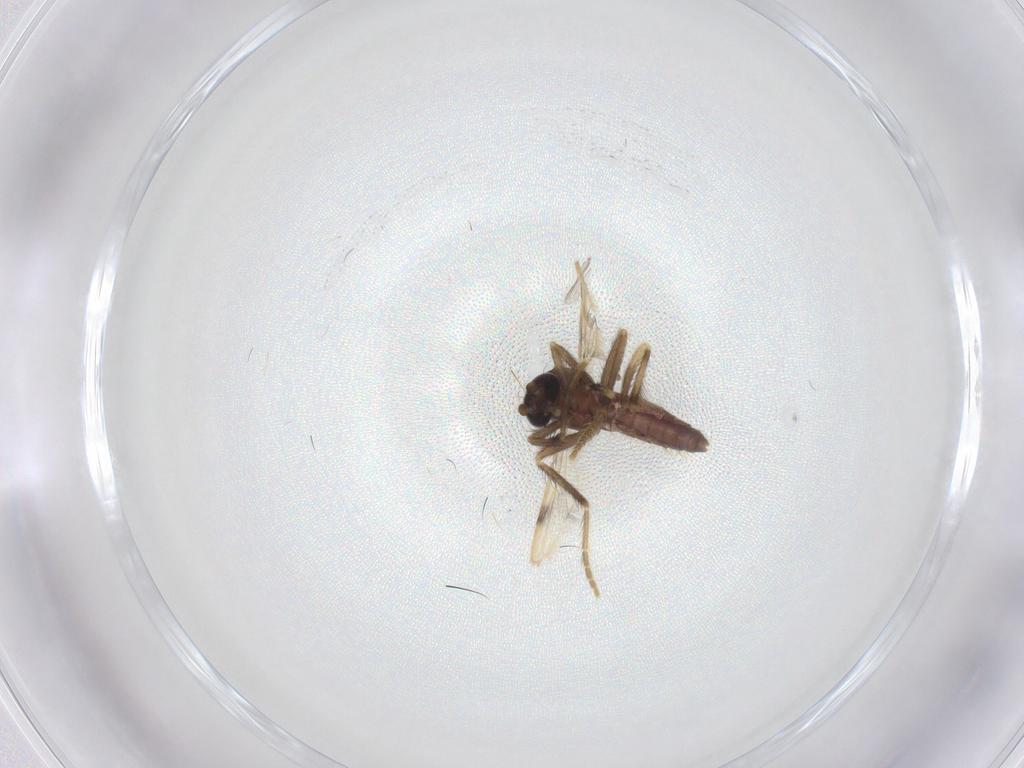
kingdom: Animalia
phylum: Arthropoda
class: Insecta
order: Diptera
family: Corethrellidae
